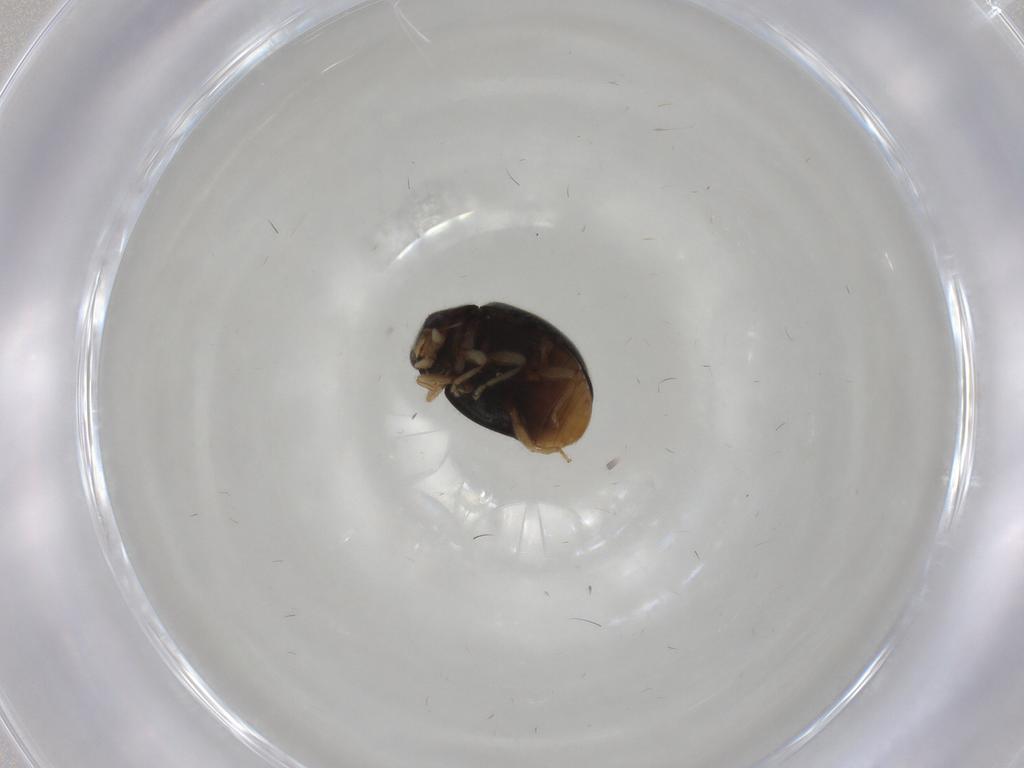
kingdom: Animalia
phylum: Arthropoda
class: Insecta
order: Coleoptera
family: Coccinellidae
